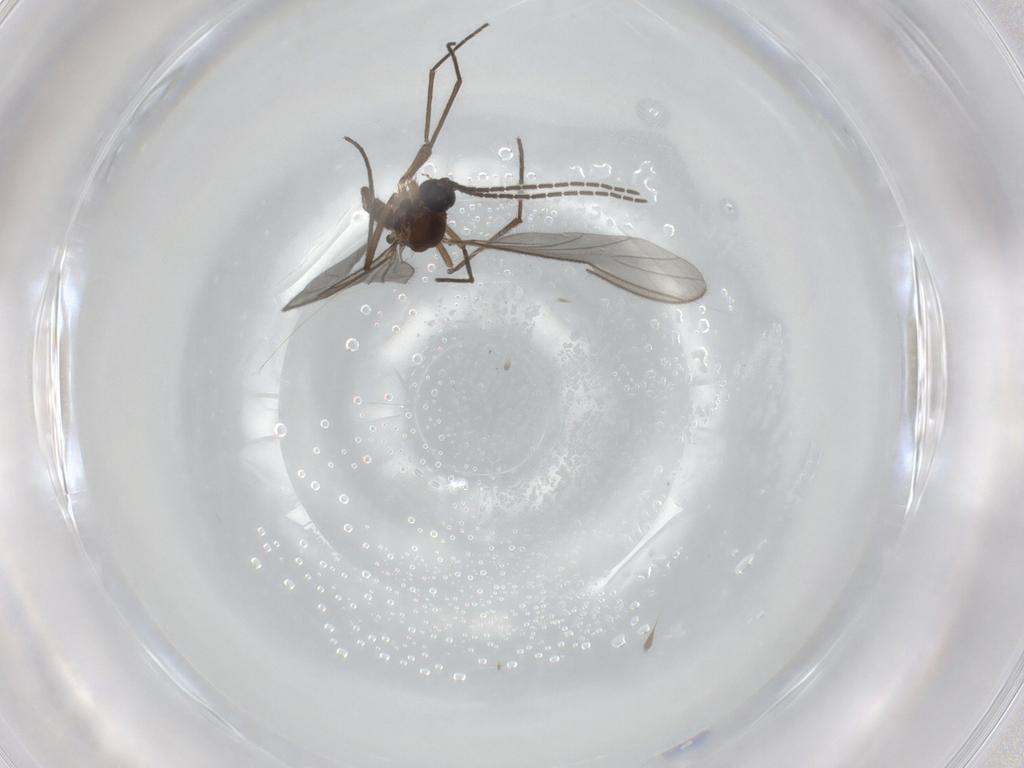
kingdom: Animalia
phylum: Arthropoda
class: Insecta
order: Diptera
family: Sciaridae
